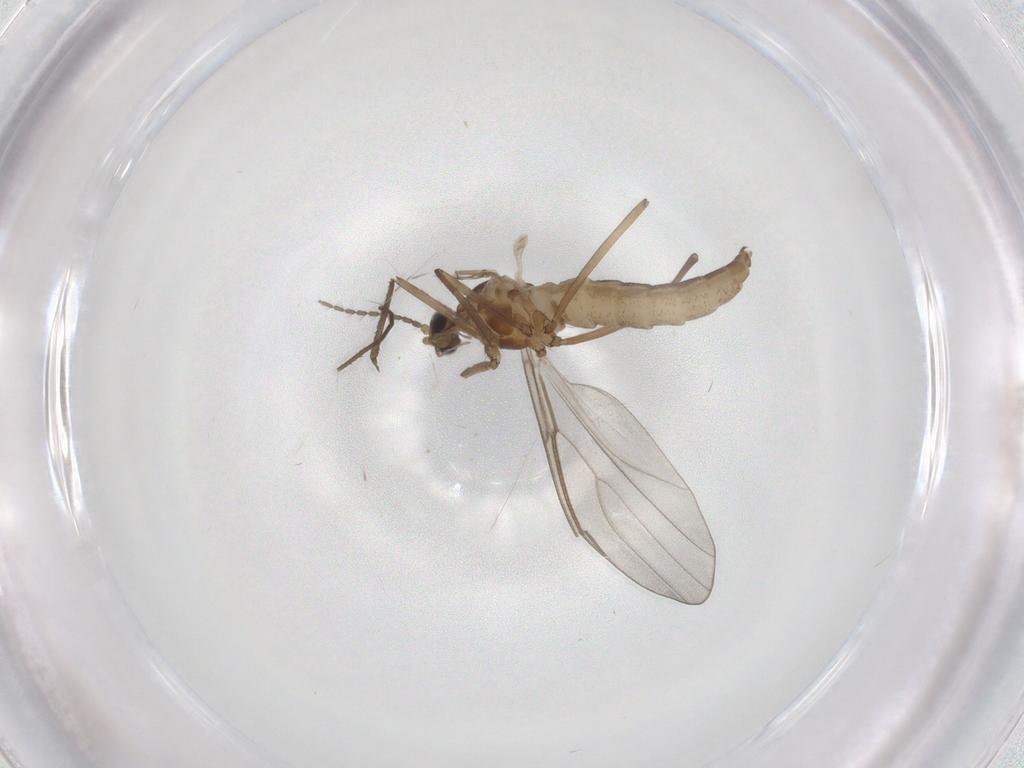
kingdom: Animalia
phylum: Arthropoda
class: Insecta
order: Diptera
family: Cecidomyiidae
